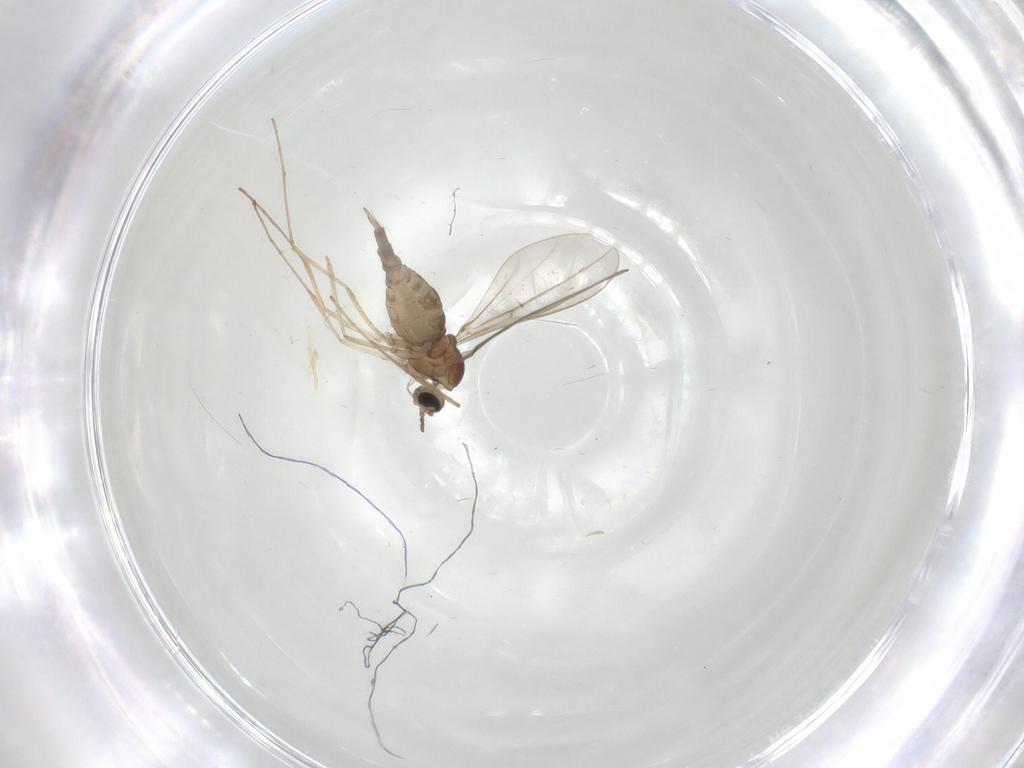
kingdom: Animalia
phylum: Arthropoda
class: Insecta
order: Diptera
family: Cecidomyiidae
